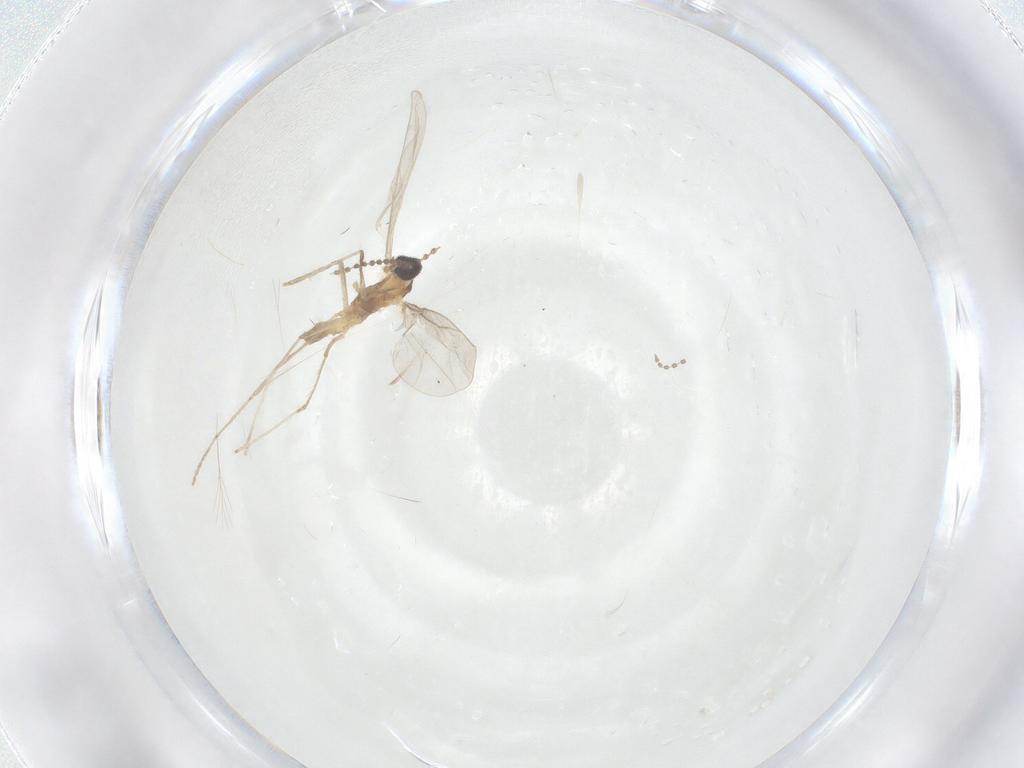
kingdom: Animalia
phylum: Arthropoda
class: Insecta
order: Diptera
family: Cecidomyiidae
